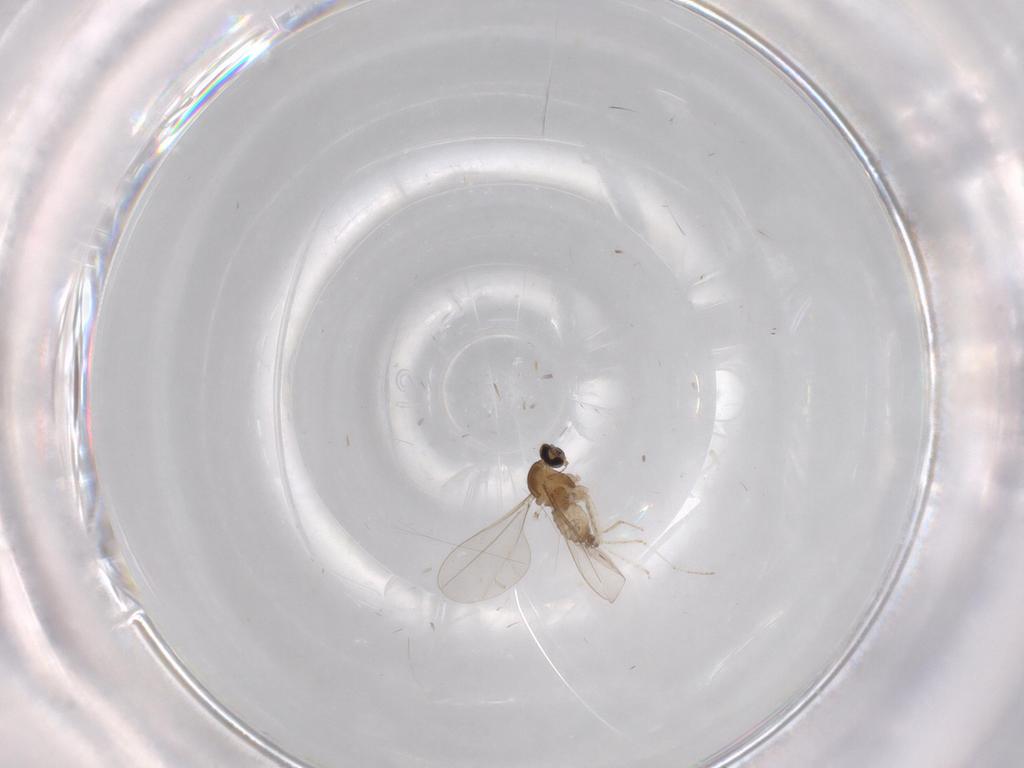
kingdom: Animalia
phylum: Arthropoda
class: Insecta
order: Diptera
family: Cecidomyiidae
